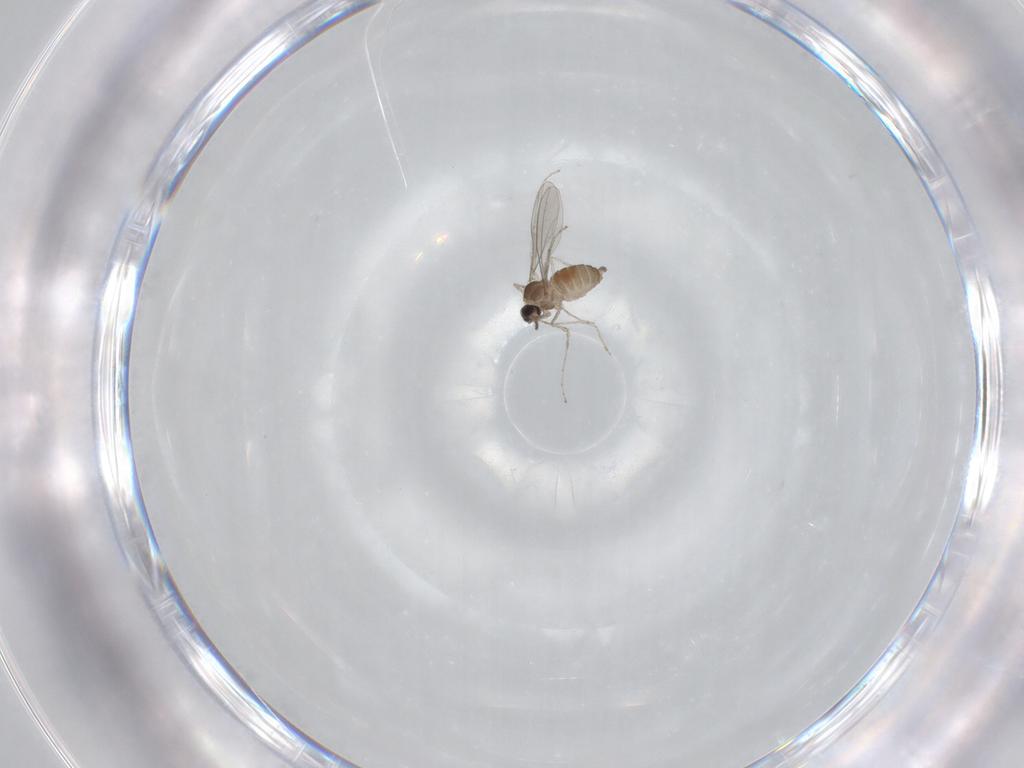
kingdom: Animalia
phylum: Arthropoda
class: Insecta
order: Diptera
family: Cecidomyiidae
